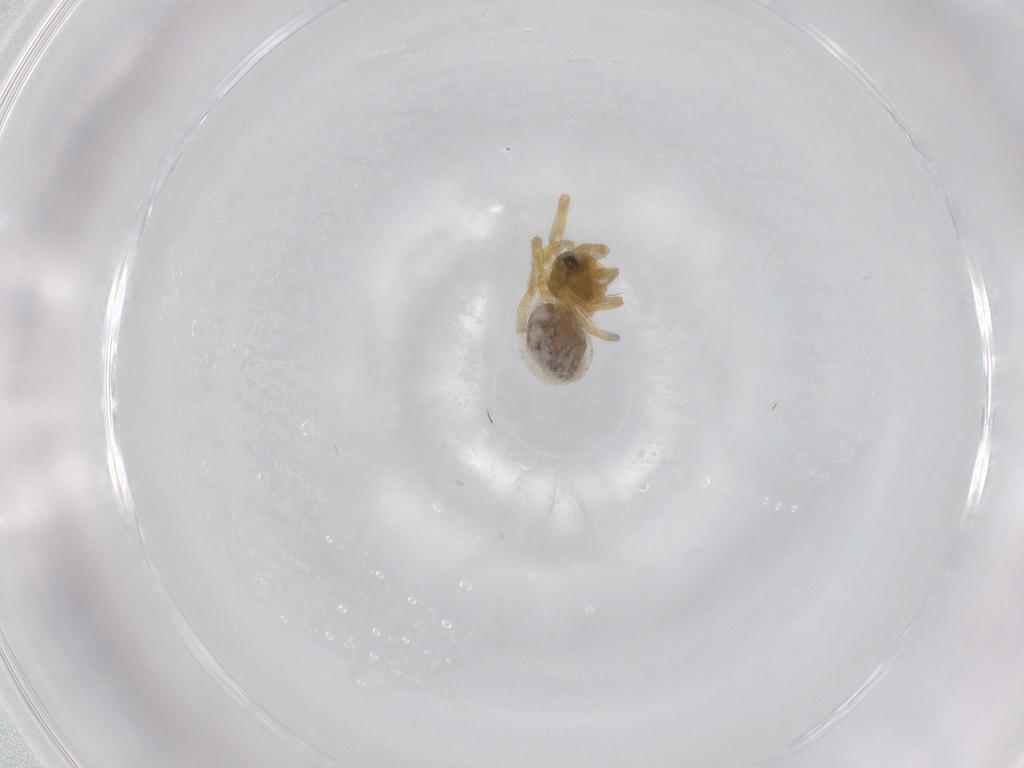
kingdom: Animalia
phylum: Arthropoda
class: Arachnida
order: Araneae
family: Linyphiidae
